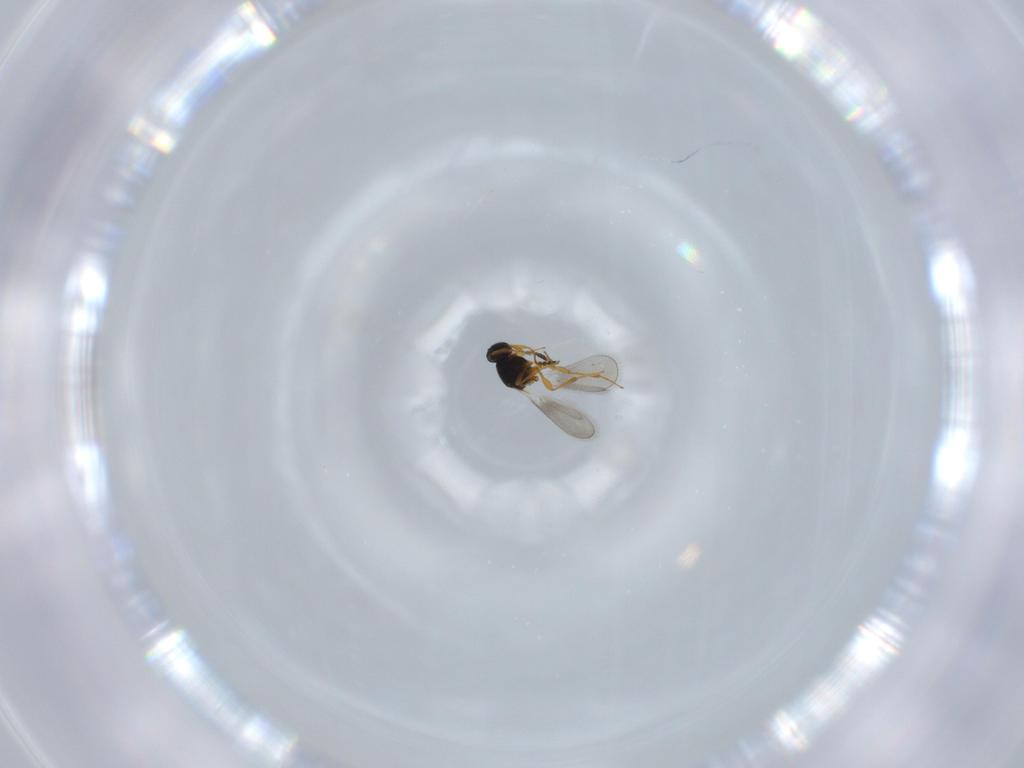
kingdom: Animalia
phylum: Arthropoda
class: Insecta
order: Hymenoptera
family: Platygastridae
